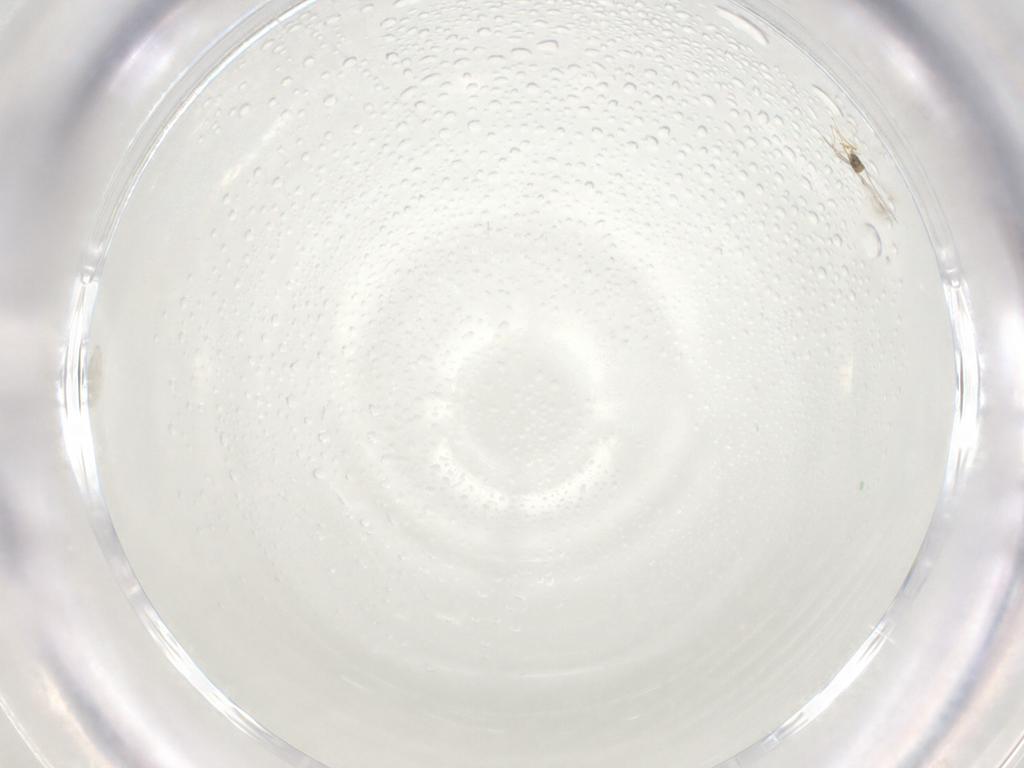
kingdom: Animalia
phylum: Arthropoda
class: Insecta
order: Hymenoptera
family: Mymaridae
